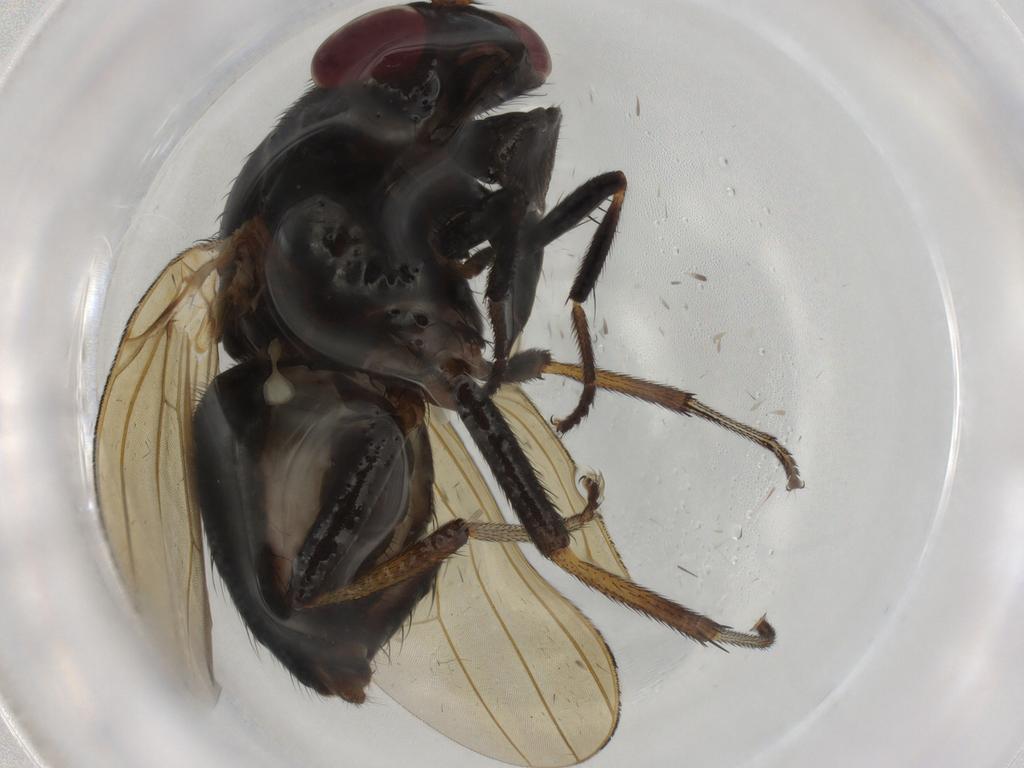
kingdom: Animalia
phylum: Arthropoda
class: Insecta
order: Diptera
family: Lauxaniidae
